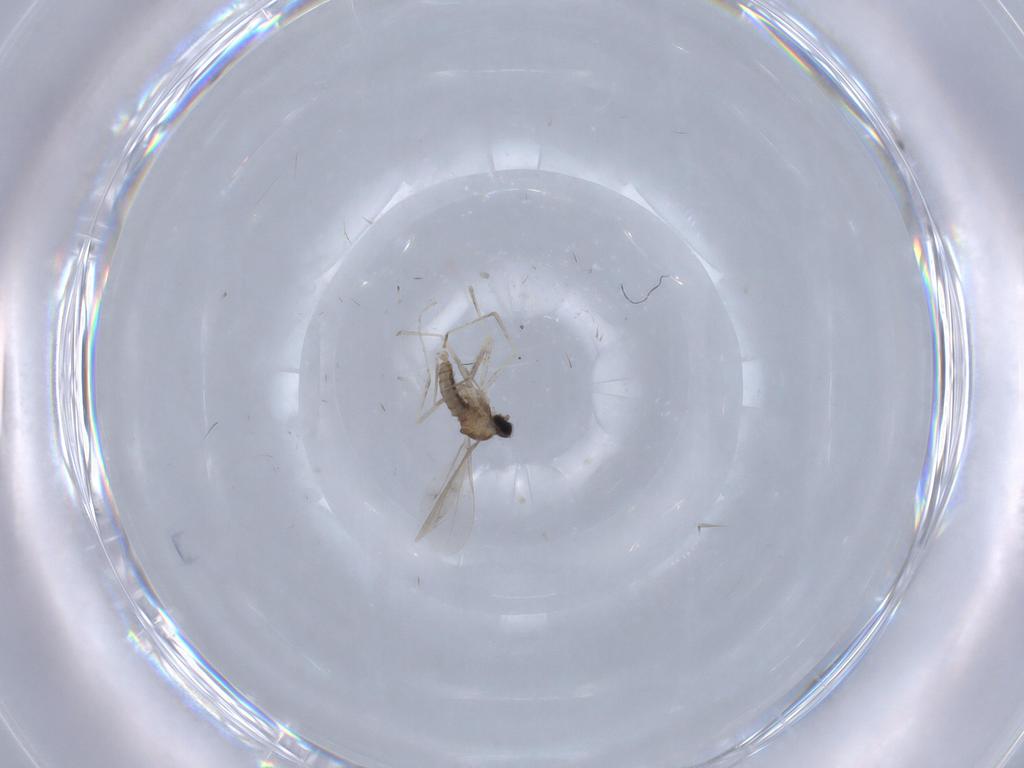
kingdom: Animalia
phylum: Arthropoda
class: Insecta
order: Diptera
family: Cecidomyiidae
